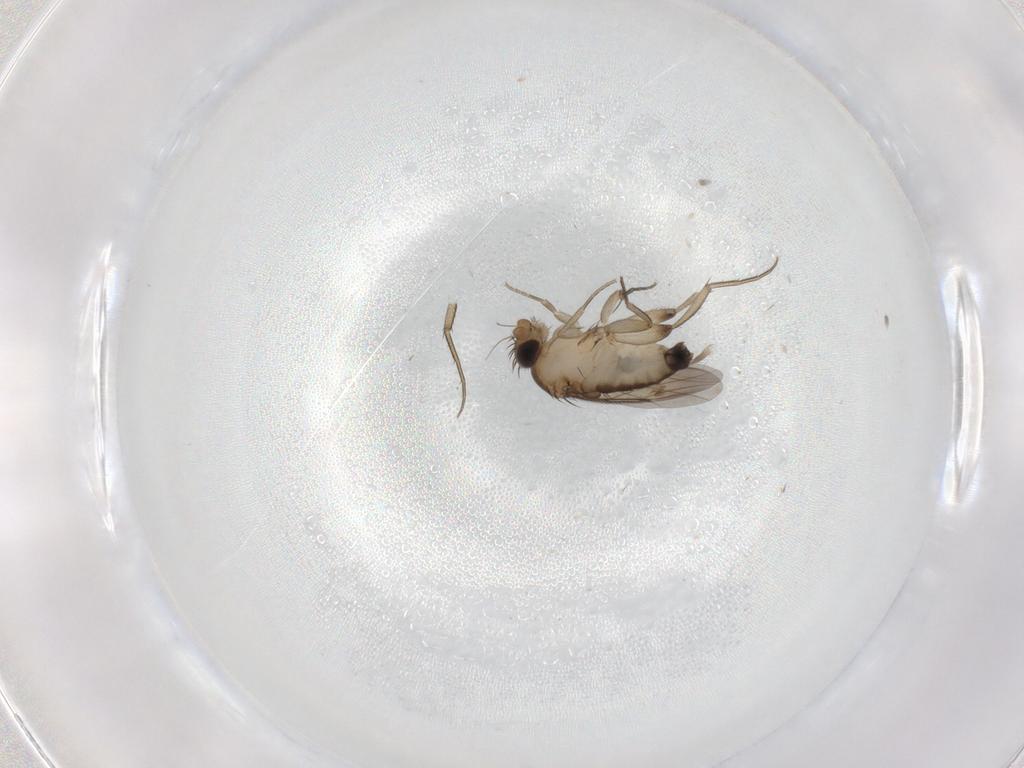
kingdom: Animalia
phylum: Arthropoda
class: Insecta
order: Diptera
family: Phoridae
